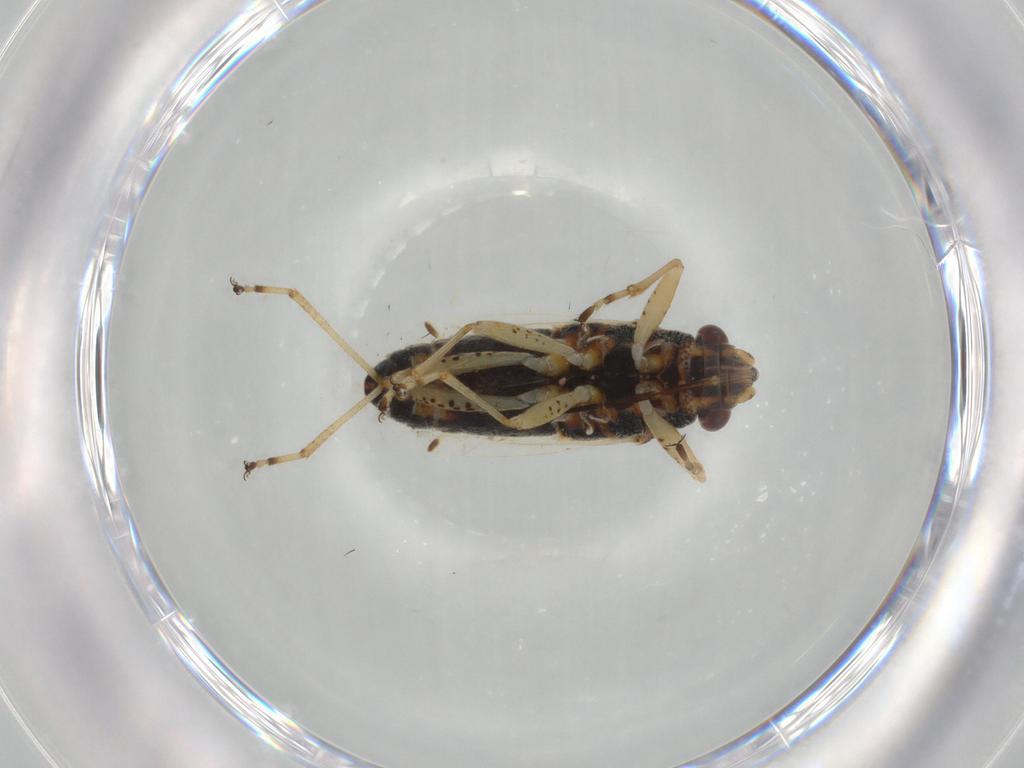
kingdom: Animalia
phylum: Arthropoda
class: Insecta
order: Hemiptera
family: Lygaeidae
